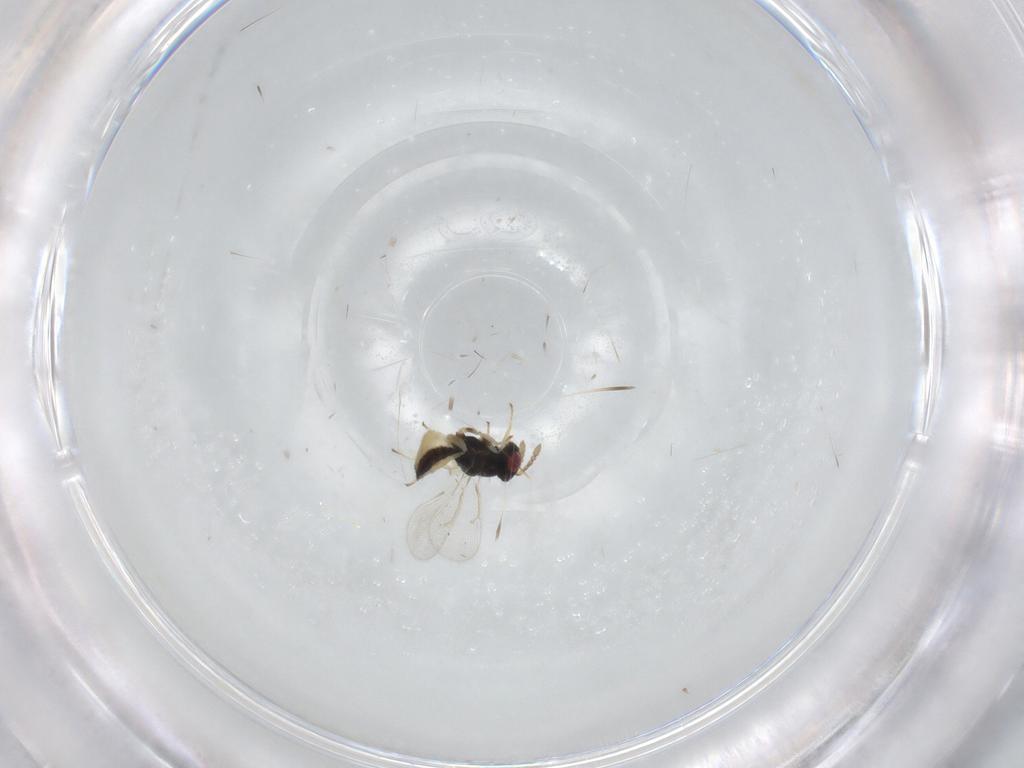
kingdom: Animalia
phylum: Arthropoda
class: Insecta
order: Hymenoptera
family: Eulophidae
